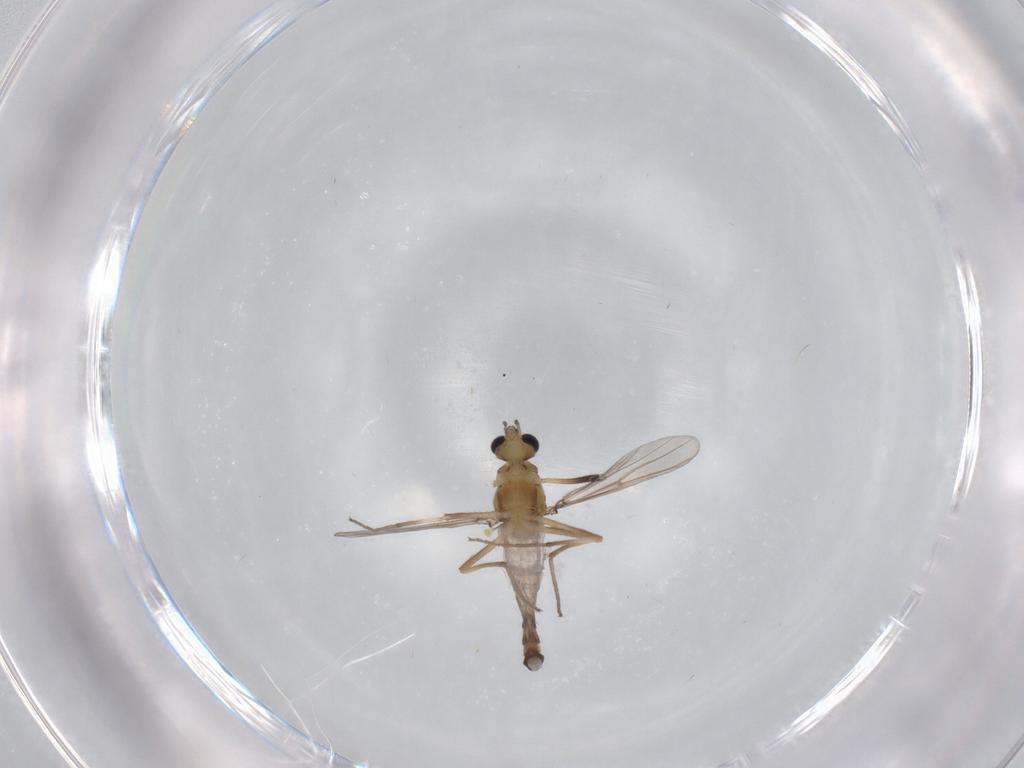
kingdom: Animalia
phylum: Arthropoda
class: Insecta
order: Diptera
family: Chironomidae
